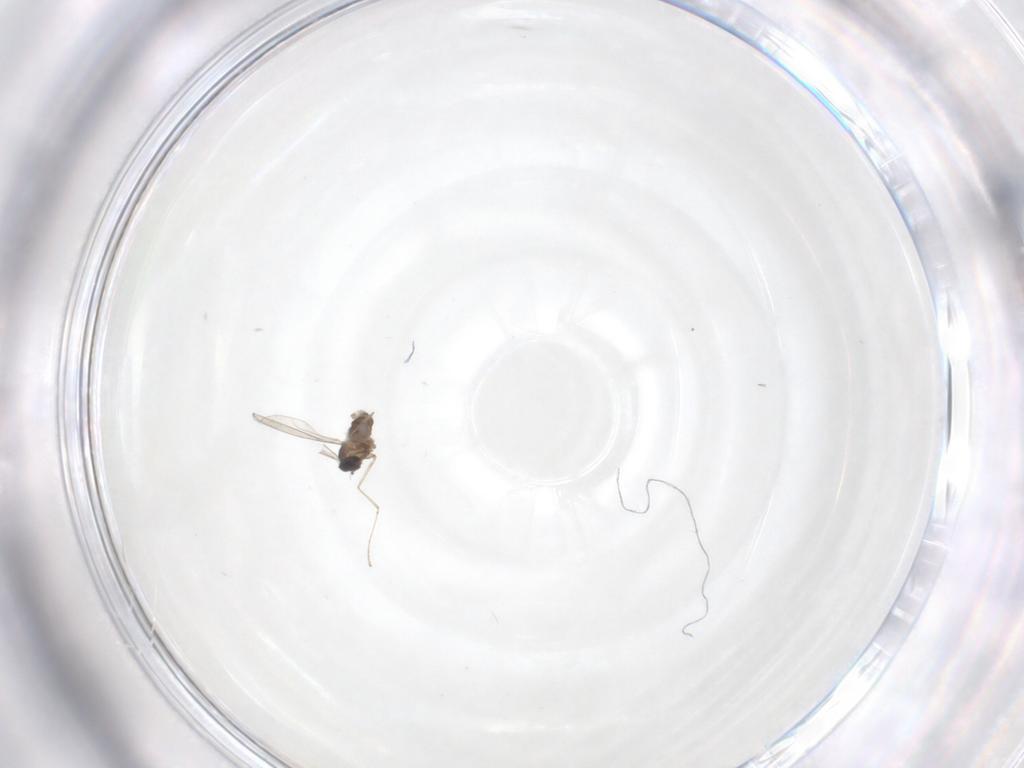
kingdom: Animalia
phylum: Arthropoda
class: Insecta
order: Diptera
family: Cecidomyiidae
